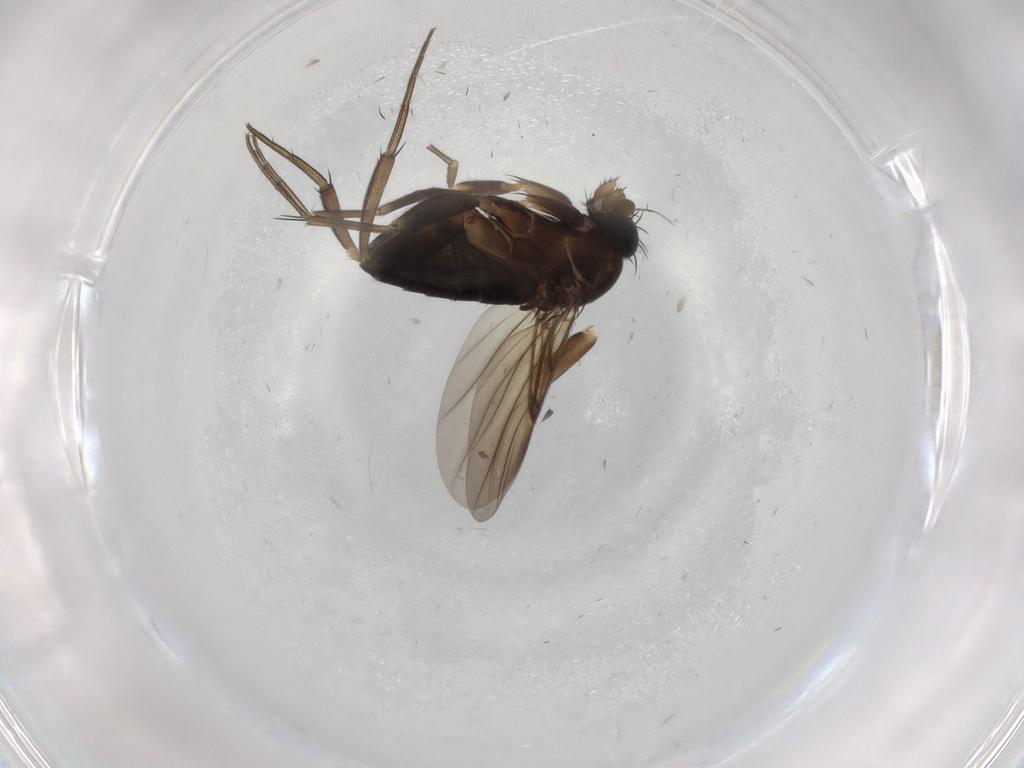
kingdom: Animalia
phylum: Arthropoda
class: Insecta
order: Diptera
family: Phoridae
